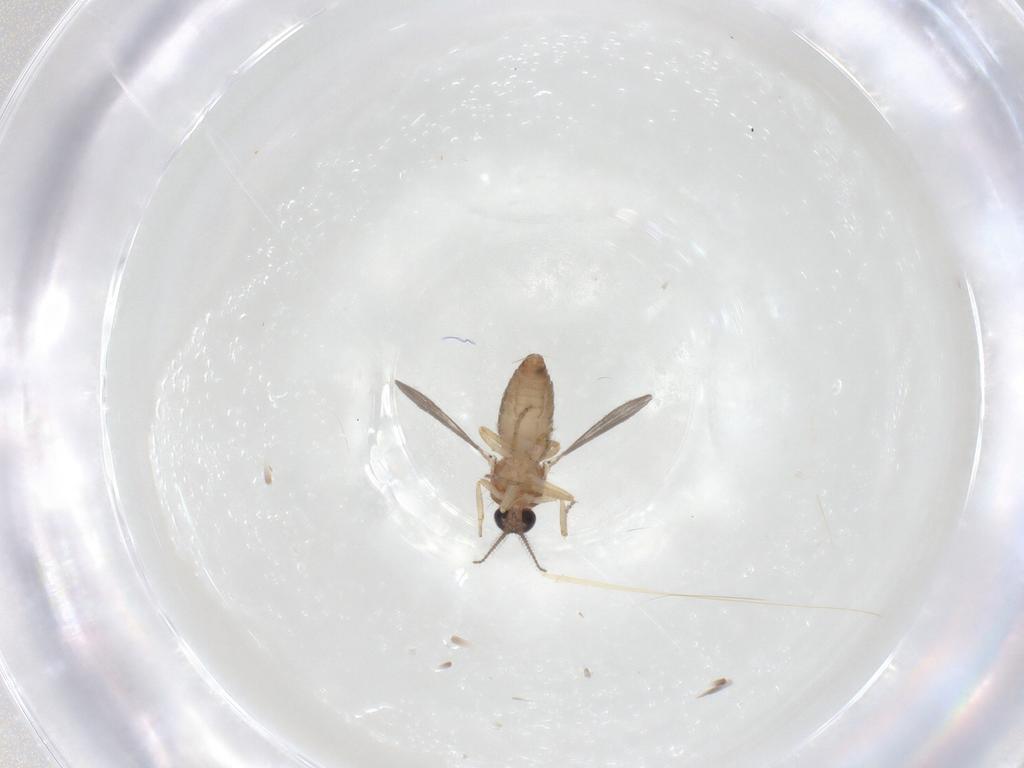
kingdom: Animalia
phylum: Arthropoda
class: Insecta
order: Diptera
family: Ceratopogonidae
